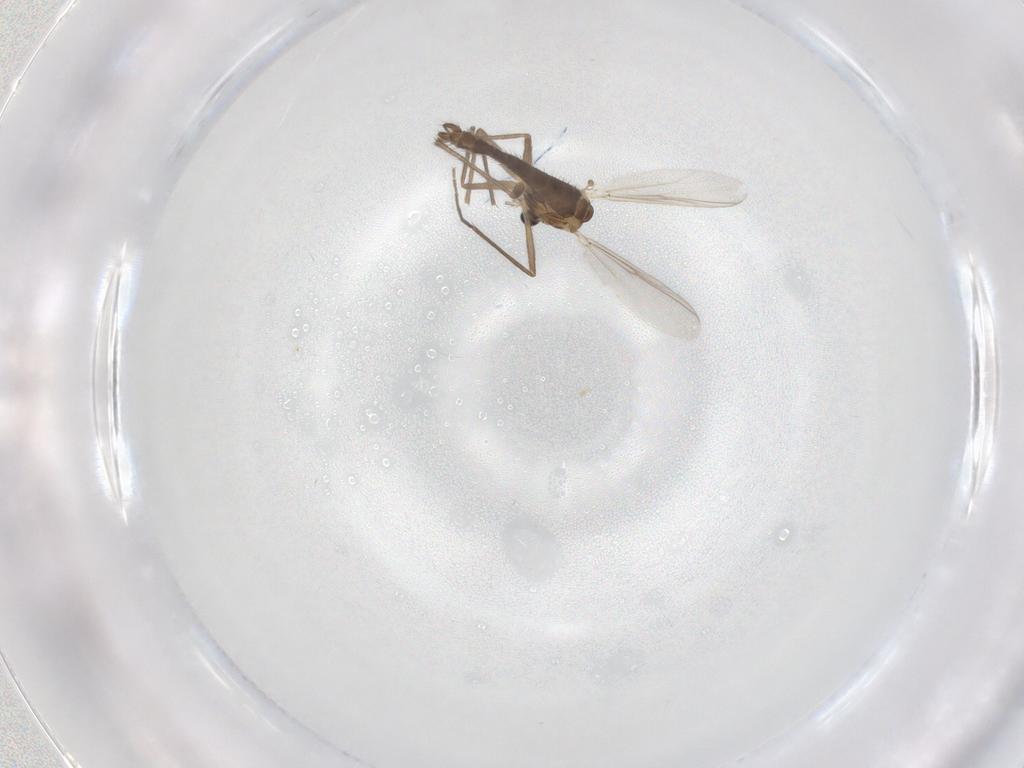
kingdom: Animalia
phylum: Arthropoda
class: Insecta
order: Diptera
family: Chironomidae
